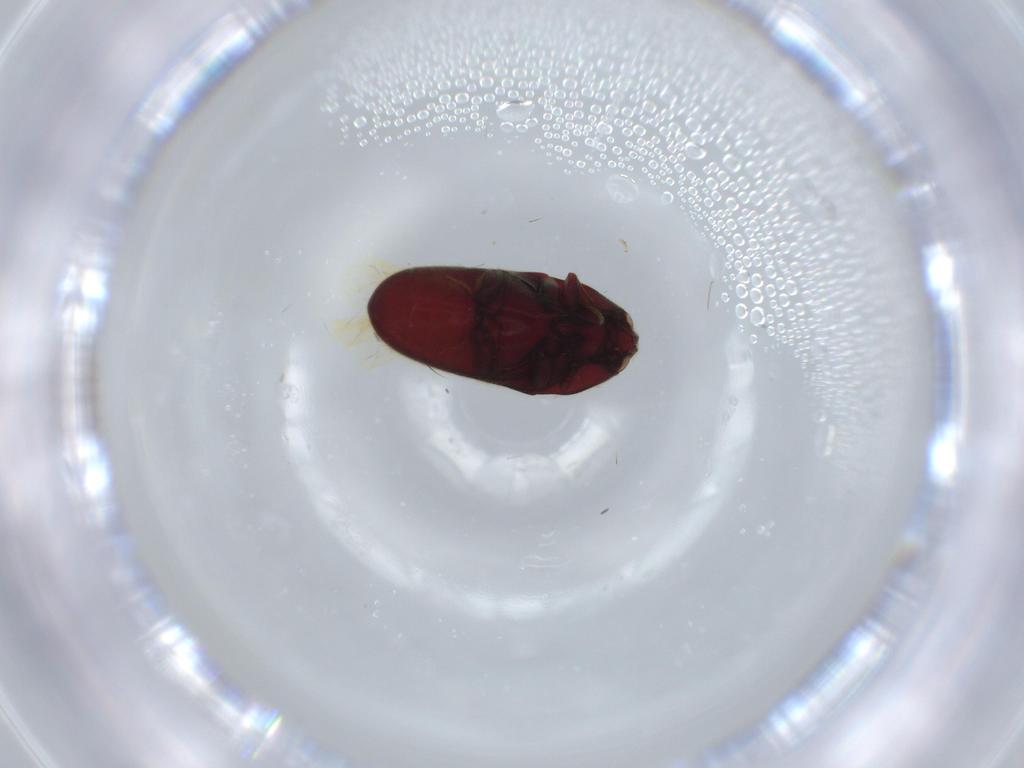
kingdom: Animalia
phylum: Arthropoda
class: Insecta
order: Coleoptera
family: Throscidae
